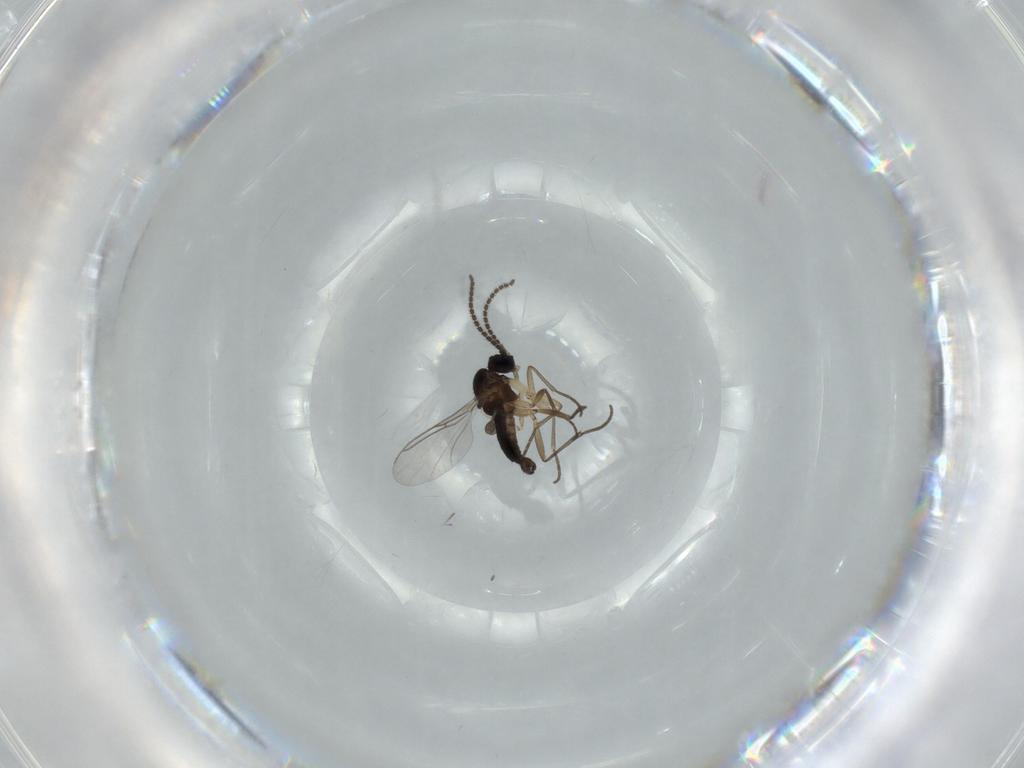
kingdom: Animalia
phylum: Arthropoda
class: Insecta
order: Diptera
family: Sciaridae
